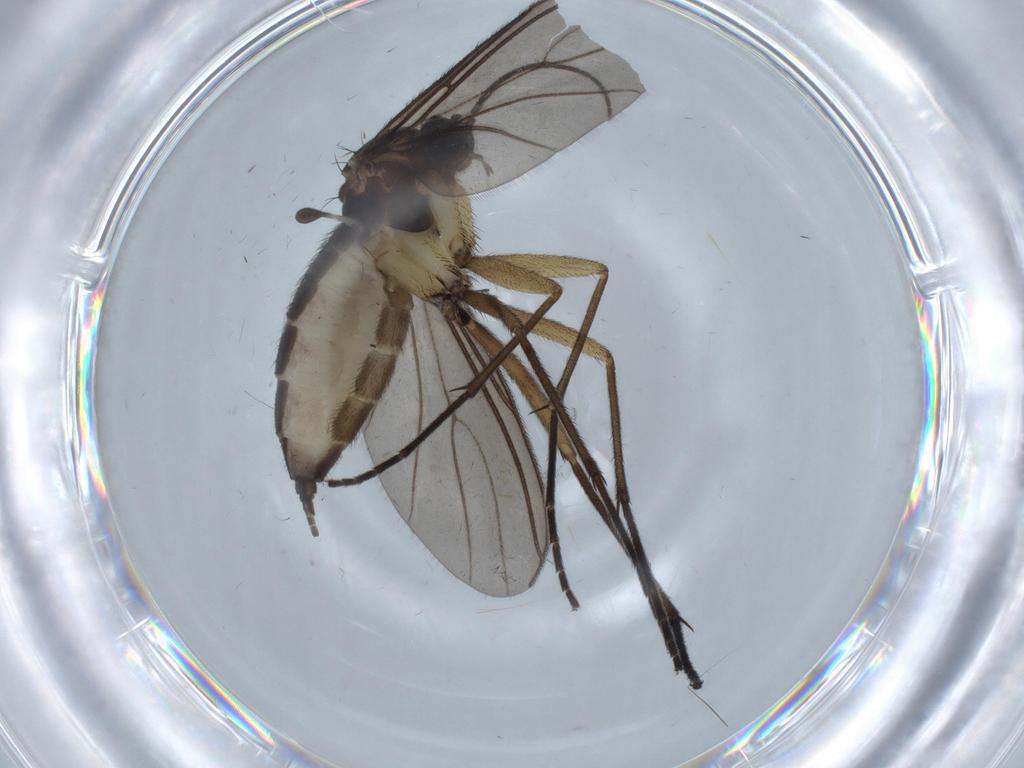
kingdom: Animalia
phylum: Arthropoda
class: Insecta
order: Diptera
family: Sciaridae
